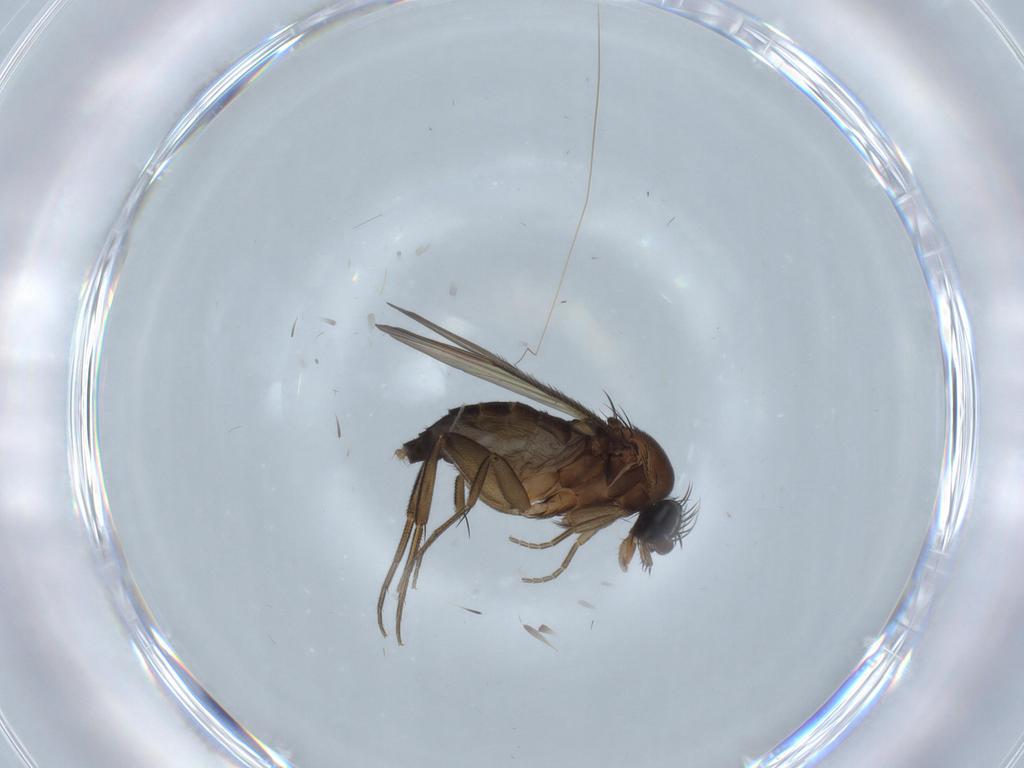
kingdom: Animalia
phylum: Arthropoda
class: Insecta
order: Diptera
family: Phoridae
